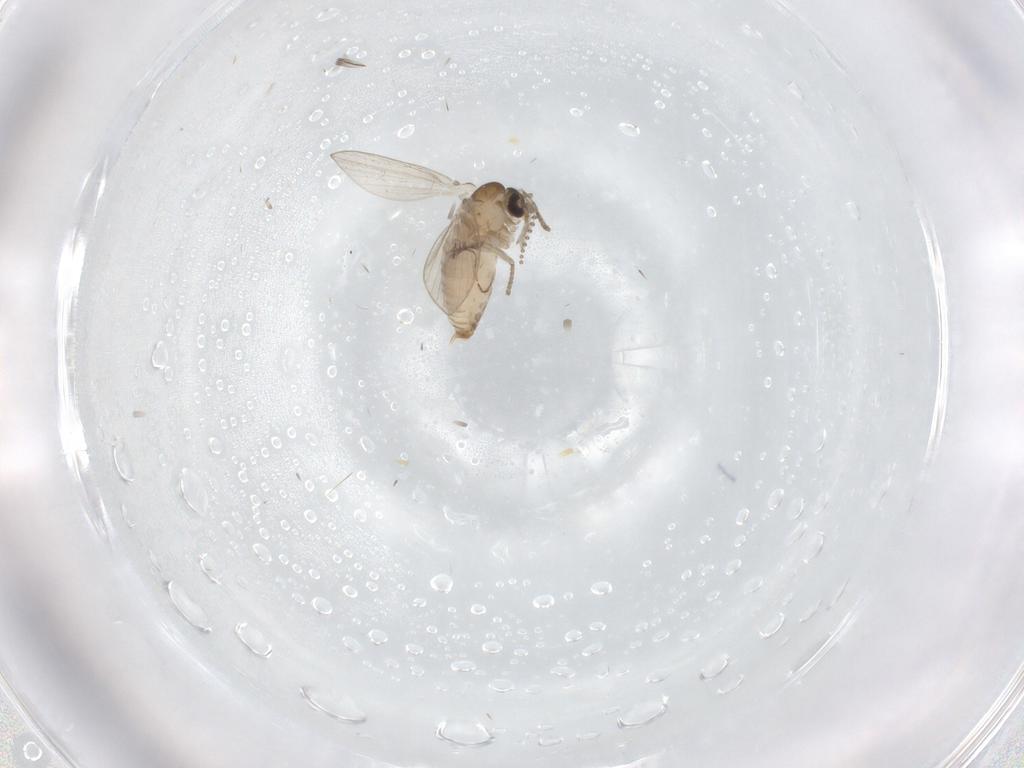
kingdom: Animalia
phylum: Arthropoda
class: Insecta
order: Diptera
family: Psychodidae
